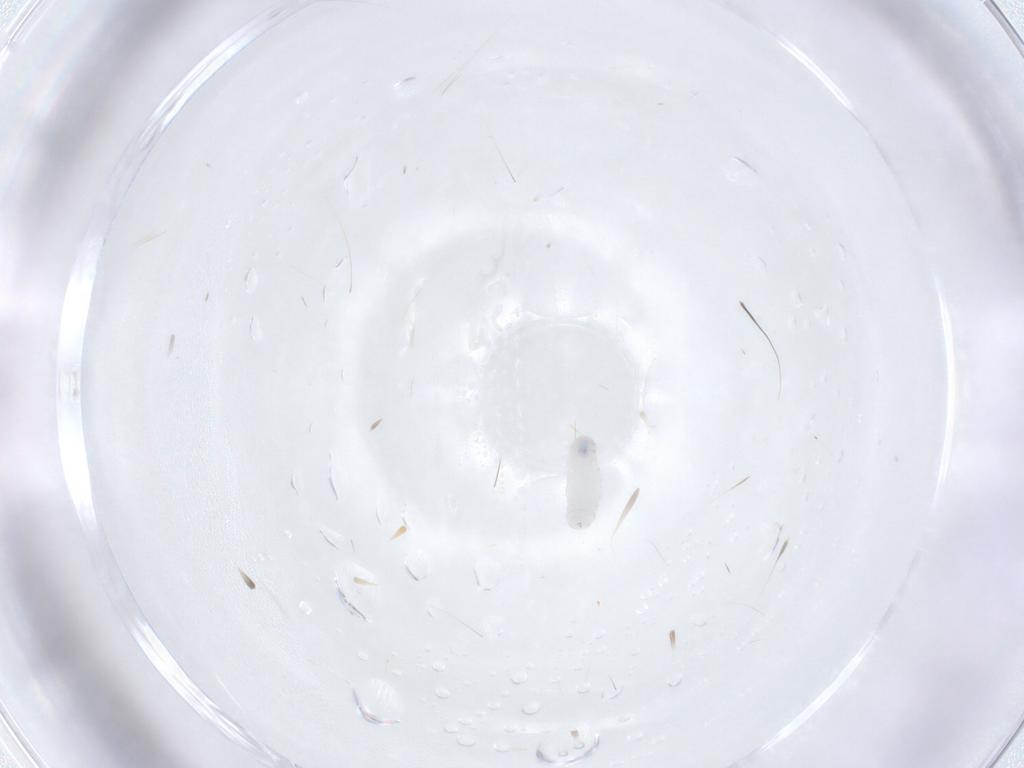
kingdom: Animalia
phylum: Arthropoda
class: Insecta
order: Diptera
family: Tachinidae
